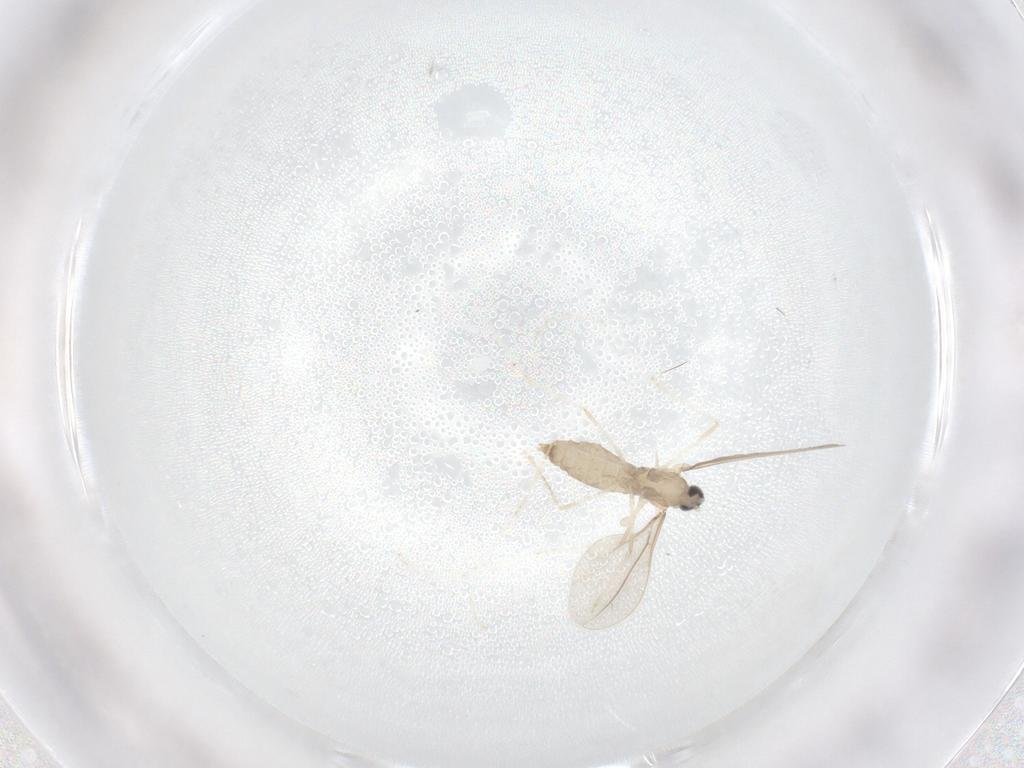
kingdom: Animalia
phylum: Arthropoda
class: Insecta
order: Diptera
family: Cecidomyiidae
